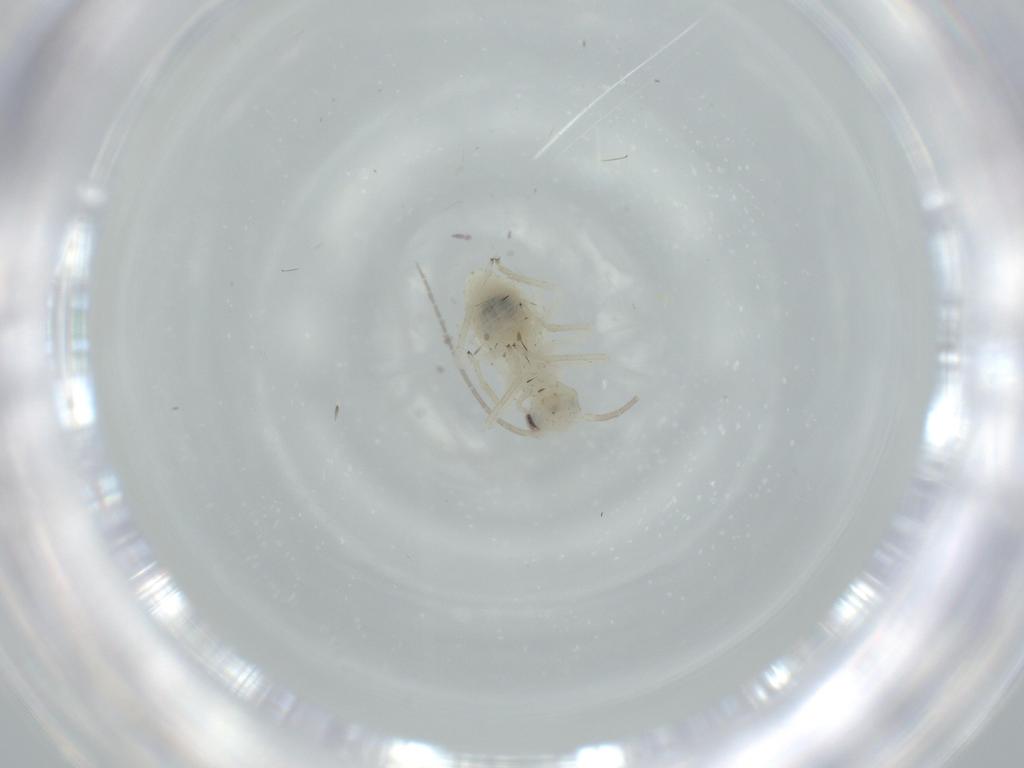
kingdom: Animalia
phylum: Arthropoda
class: Insecta
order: Psocodea
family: Caeciliusidae
